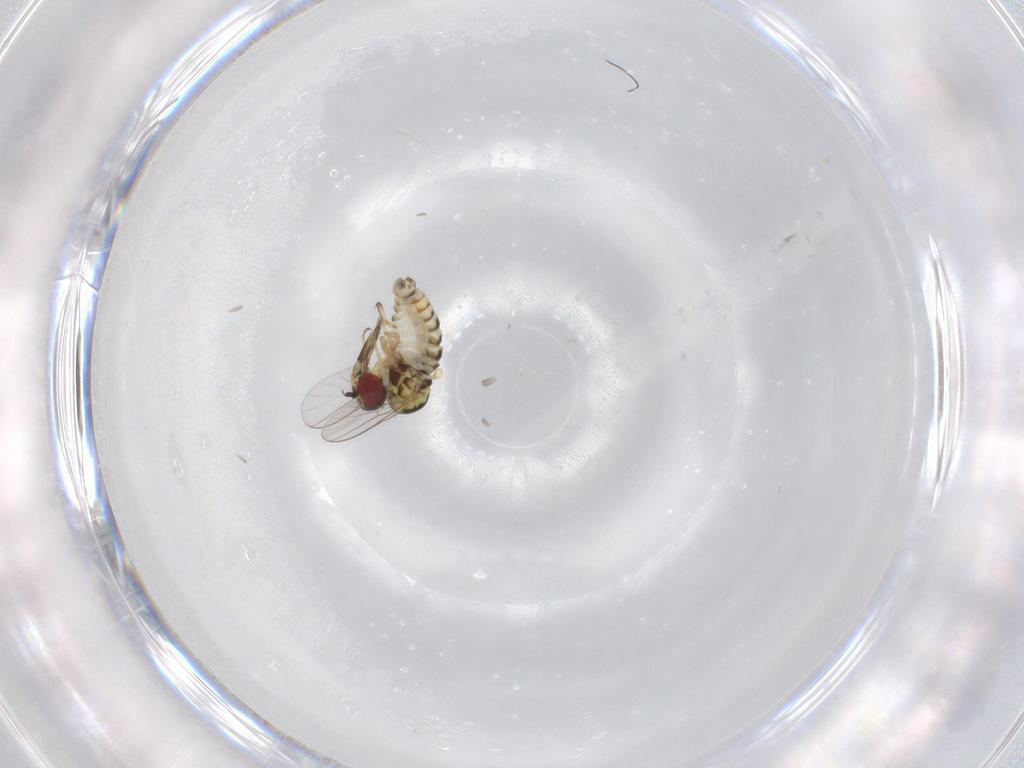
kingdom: Animalia
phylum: Arthropoda
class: Insecta
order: Diptera
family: Bombyliidae
